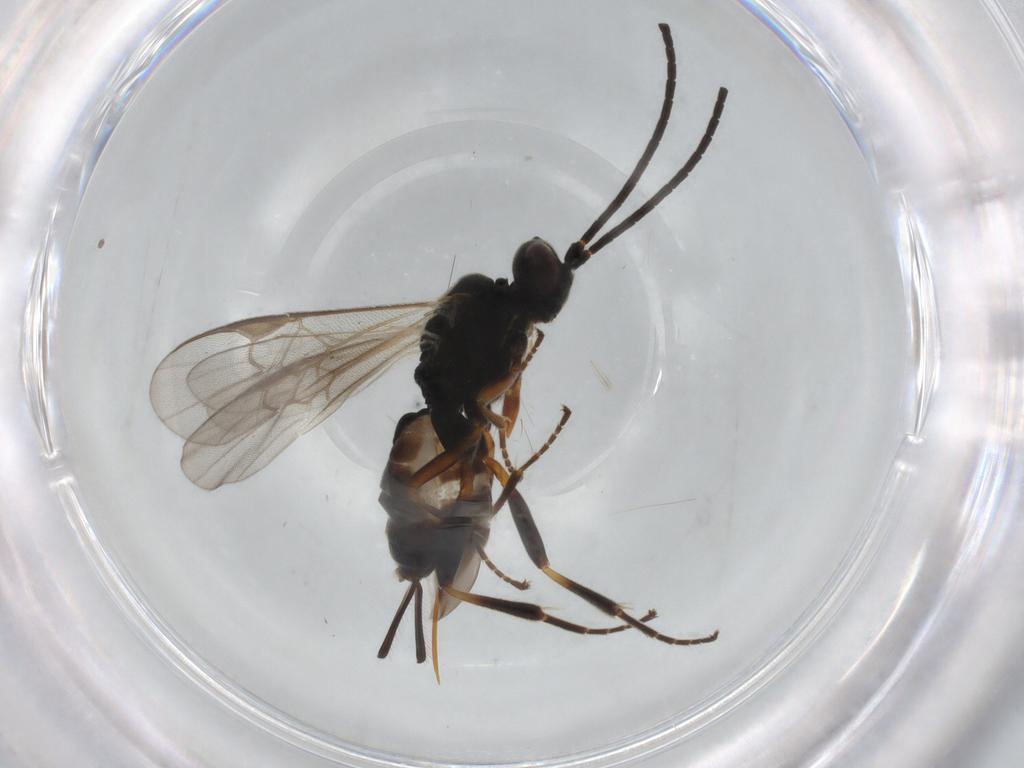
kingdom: Animalia
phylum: Arthropoda
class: Insecta
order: Hymenoptera
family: Braconidae
